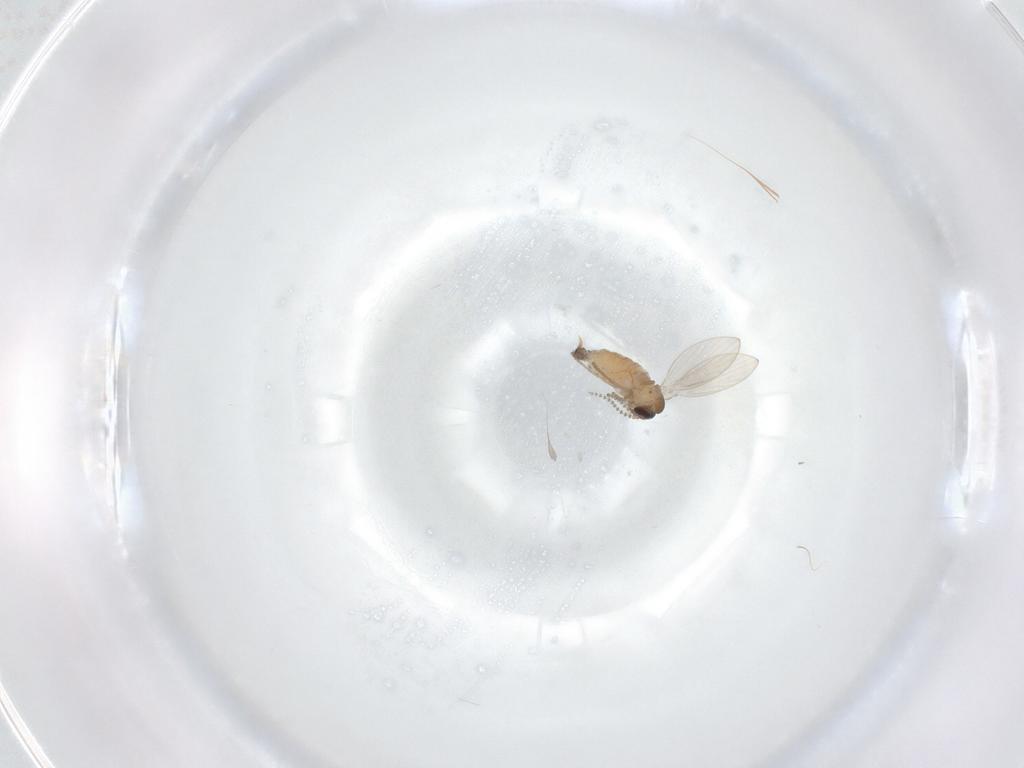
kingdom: Animalia
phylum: Arthropoda
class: Insecta
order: Diptera
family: Psychodidae
